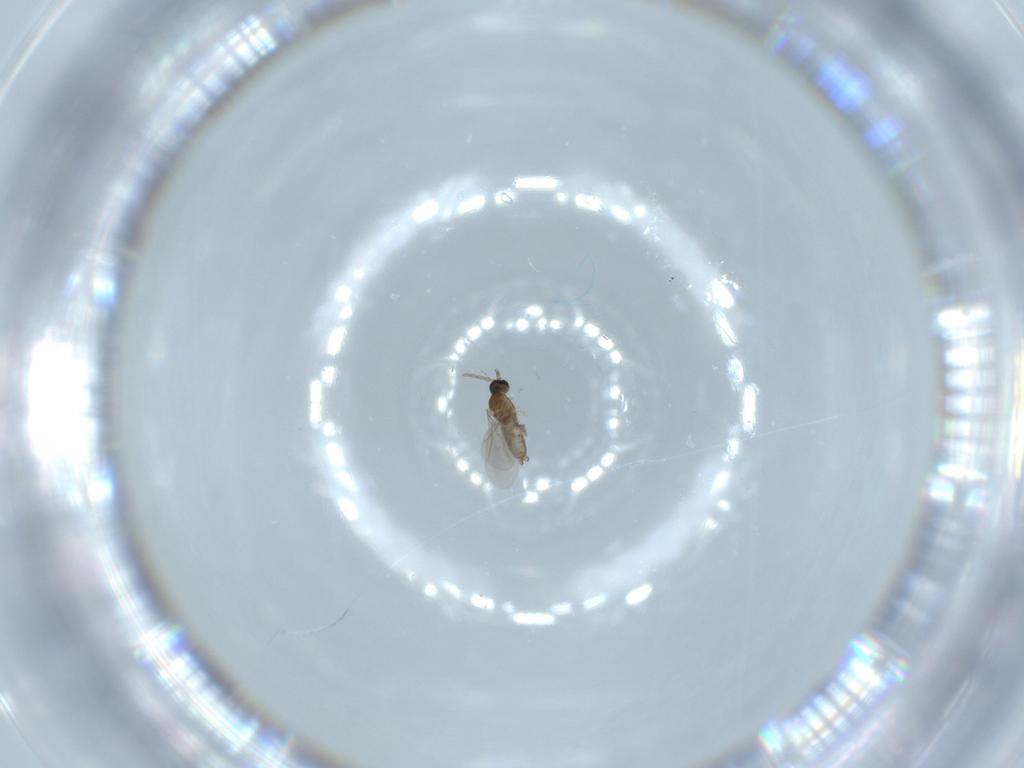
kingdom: Animalia
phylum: Arthropoda
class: Insecta
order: Diptera
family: Cecidomyiidae
